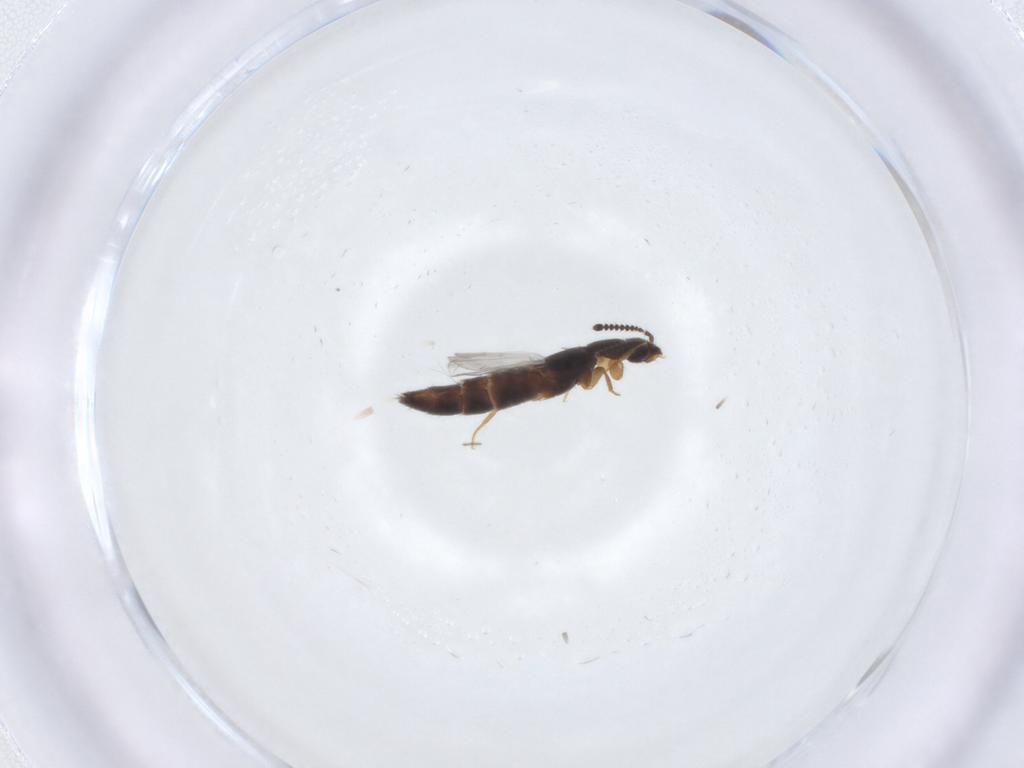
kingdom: Animalia
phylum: Arthropoda
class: Insecta
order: Coleoptera
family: Staphylinidae
